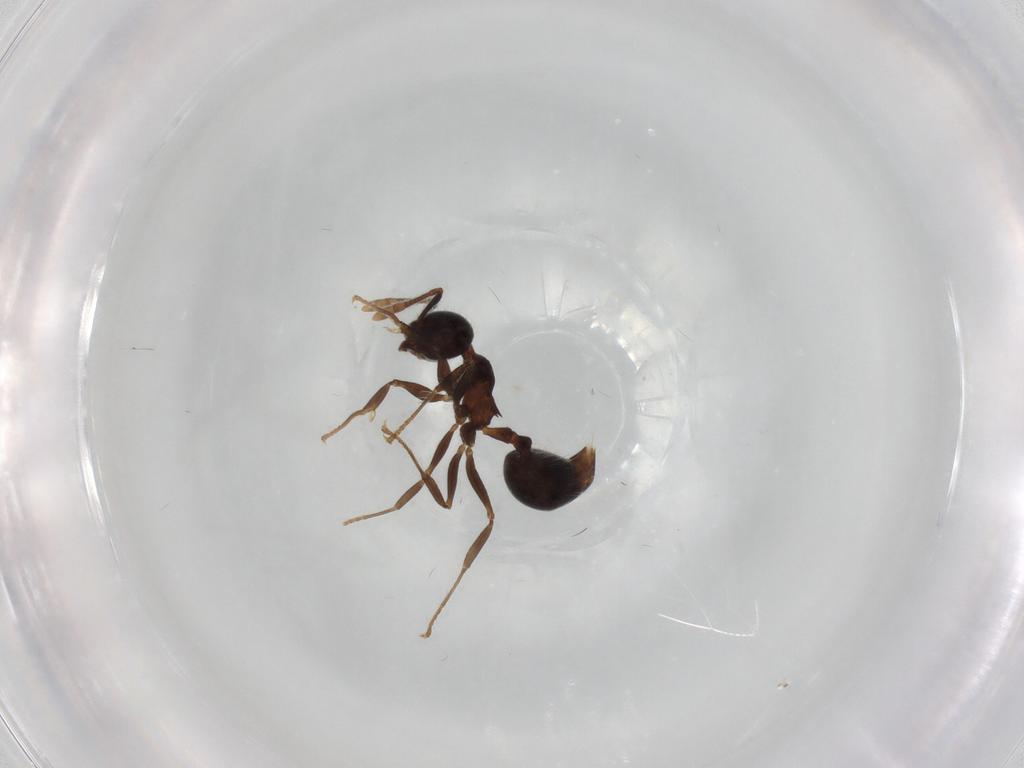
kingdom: Animalia
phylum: Arthropoda
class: Insecta
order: Hymenoptera
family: Formicidae
